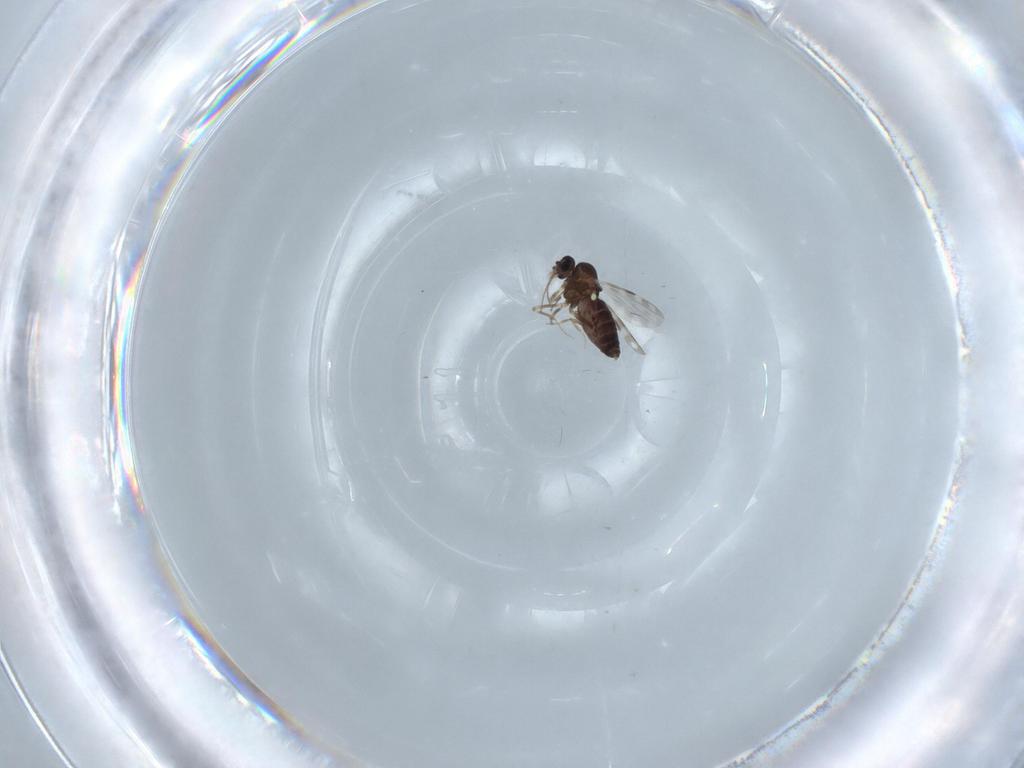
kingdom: Animalia
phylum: Arthropoda
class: Insecta
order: Diptera
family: Ceratopogonidae
